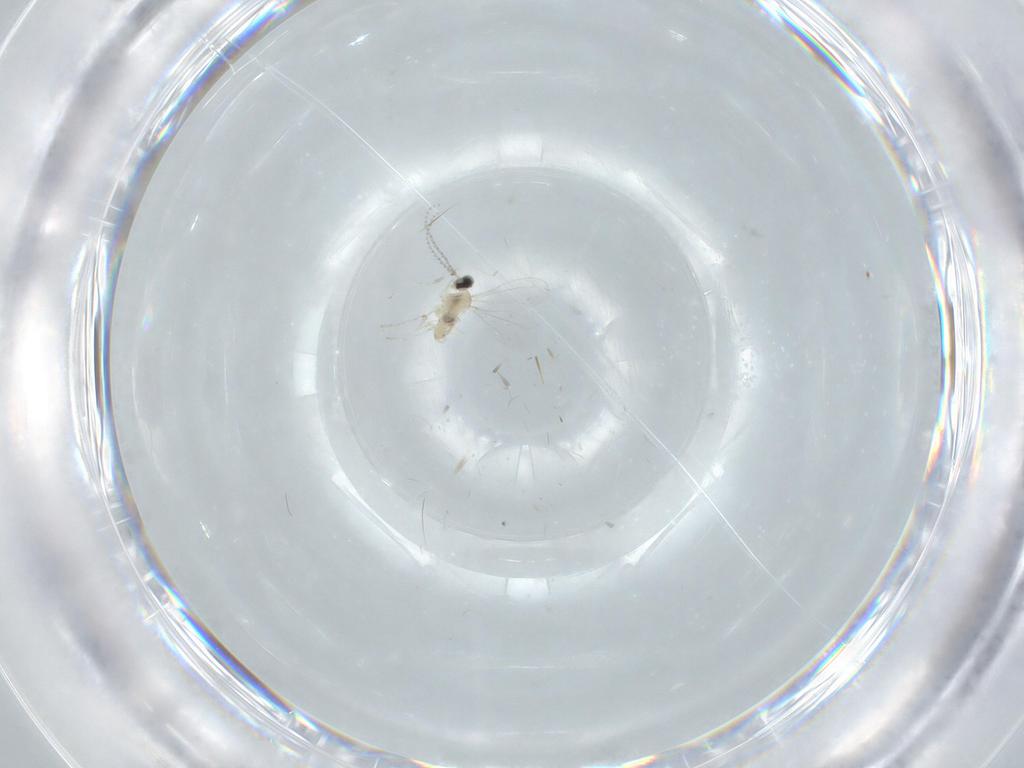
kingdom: Animalia
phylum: Arthropoda
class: Insecta
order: Diptera
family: Cecidomyiidae
